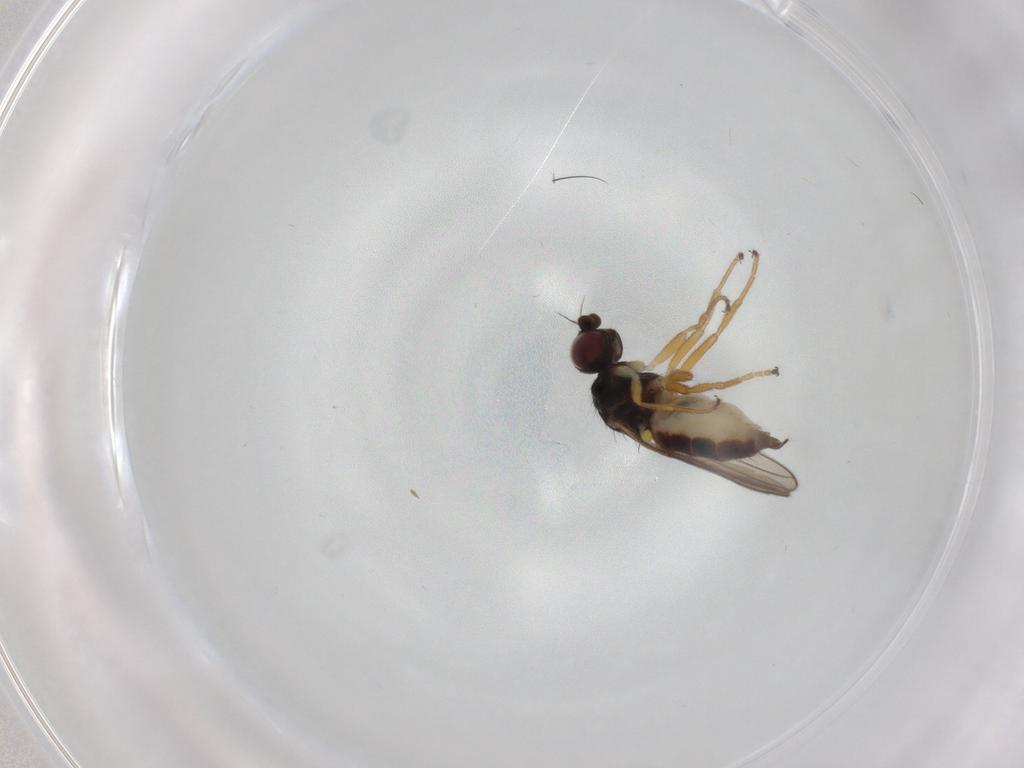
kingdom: Animalia
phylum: Arthropoda
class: Insecta
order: Diptera
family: Chloropidae
